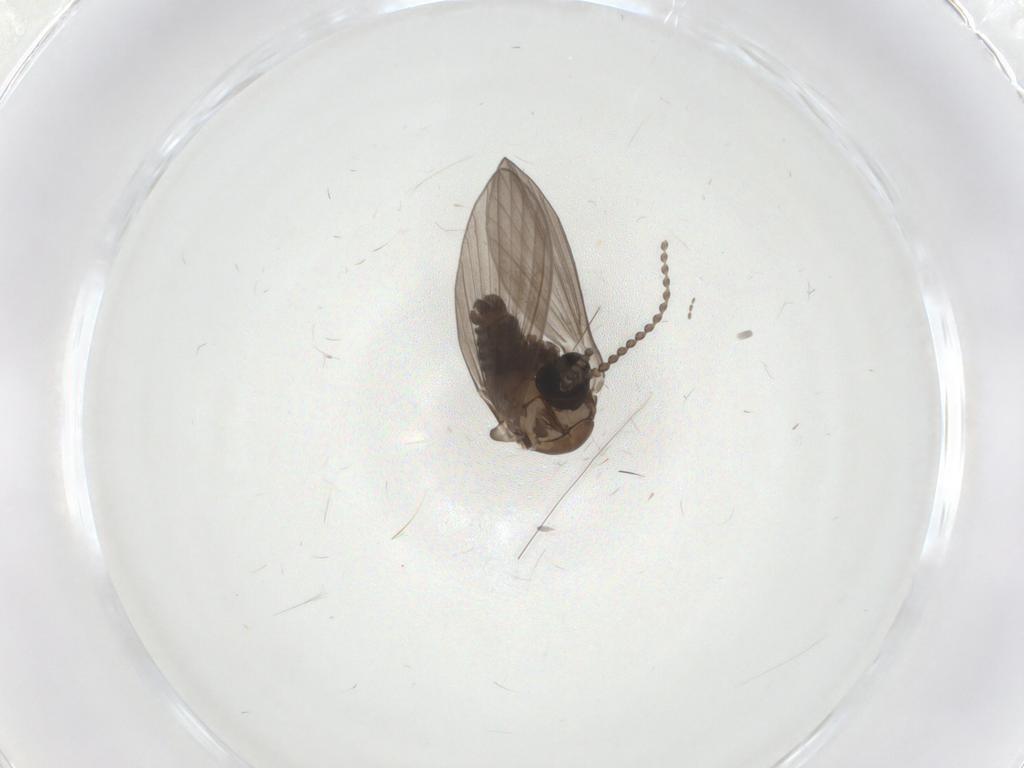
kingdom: Animalia
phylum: Arthropoda
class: Insecta
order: Diptera
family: Psychodidae
